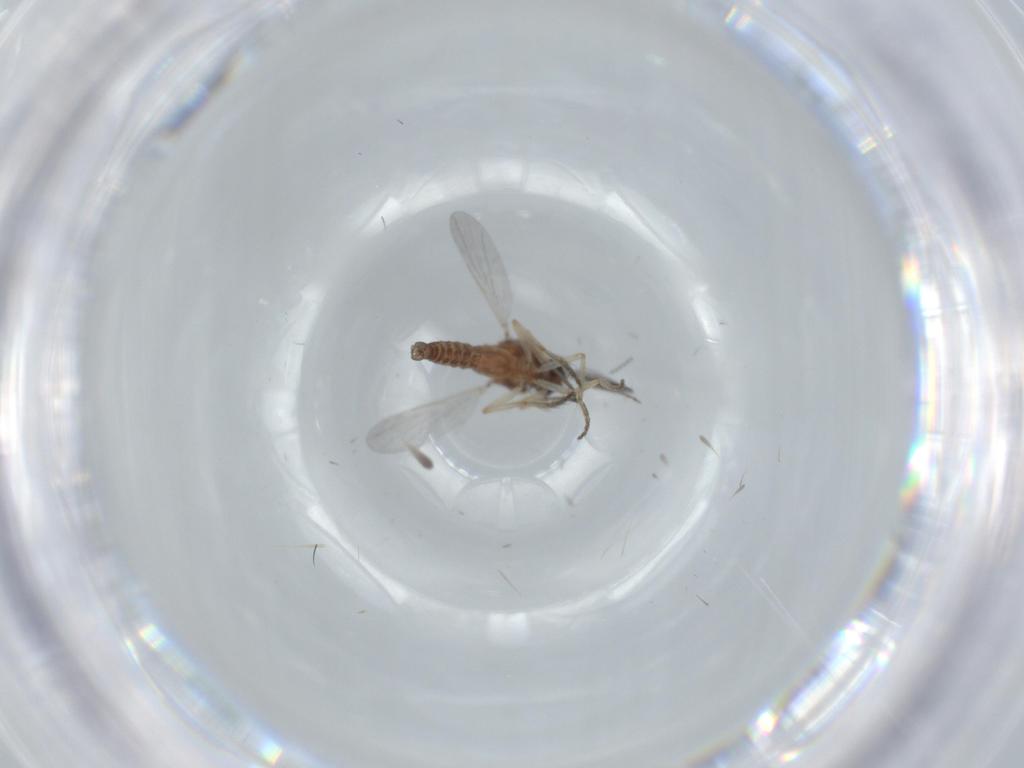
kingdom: Animalia
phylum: Arthropoda
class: Insecta
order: Diptera
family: Ceratopogonidae
